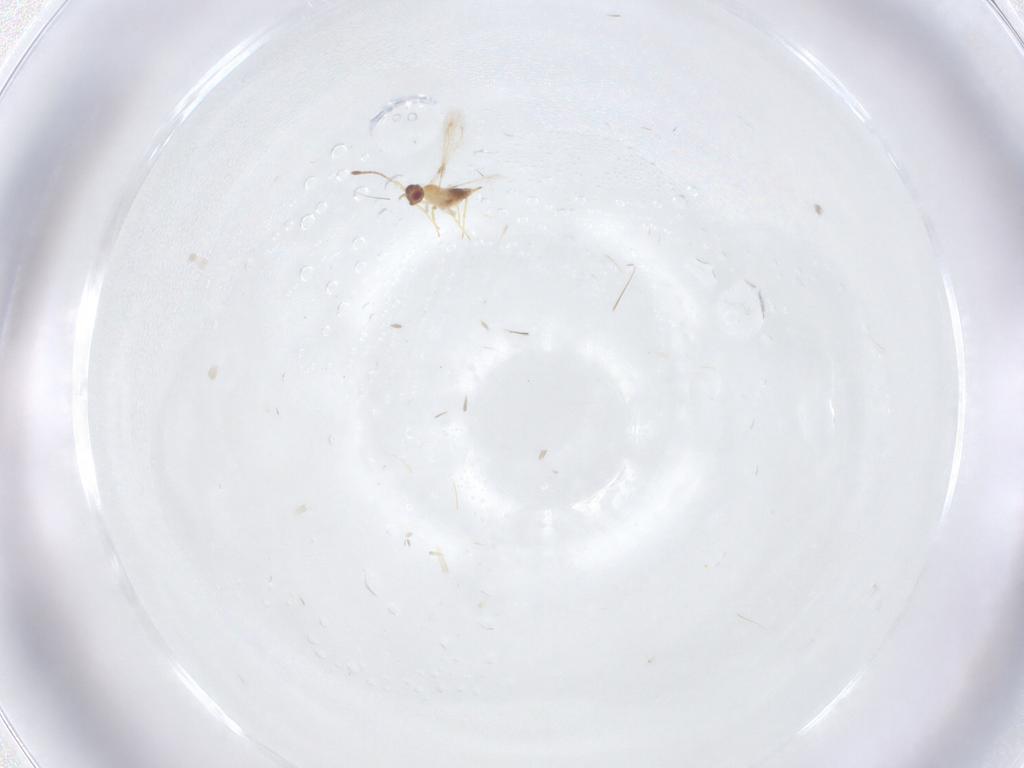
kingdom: Animalia
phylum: Arthropoda
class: Insecta
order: Hymenoptera
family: Mymaridae
